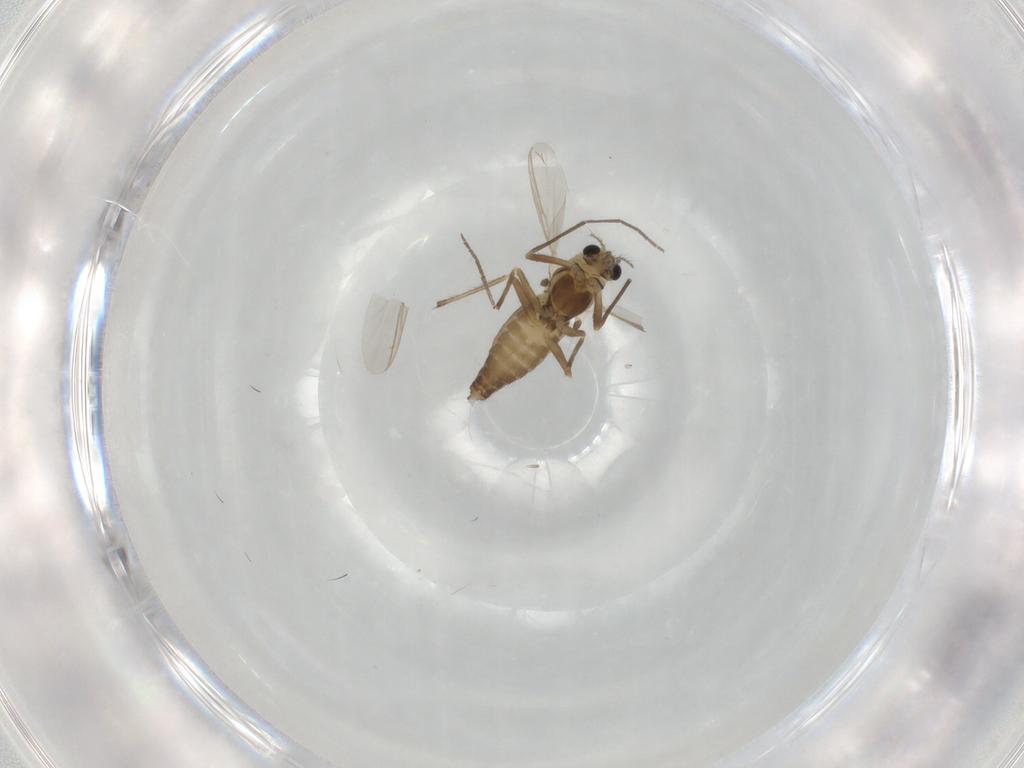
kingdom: Animalia
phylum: Arthropoda
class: Insecta
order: Diptera
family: Chironomidae
